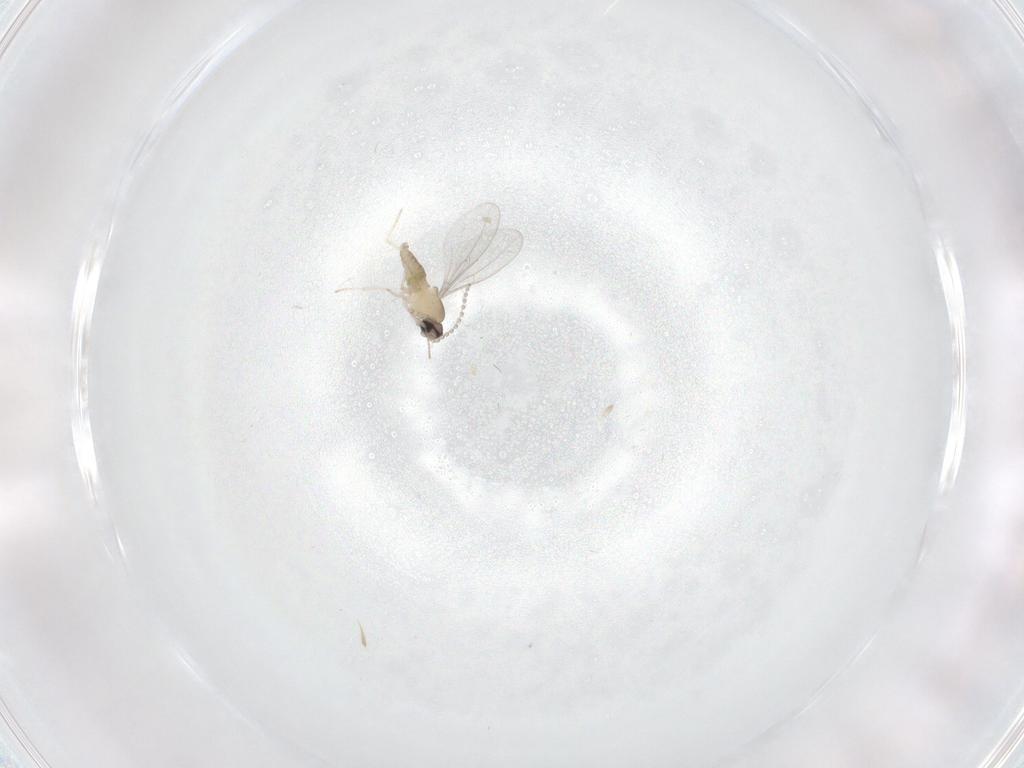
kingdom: Animalia
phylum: Arthropoda
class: Insecta
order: Diptera
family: Cecidomyiidae
